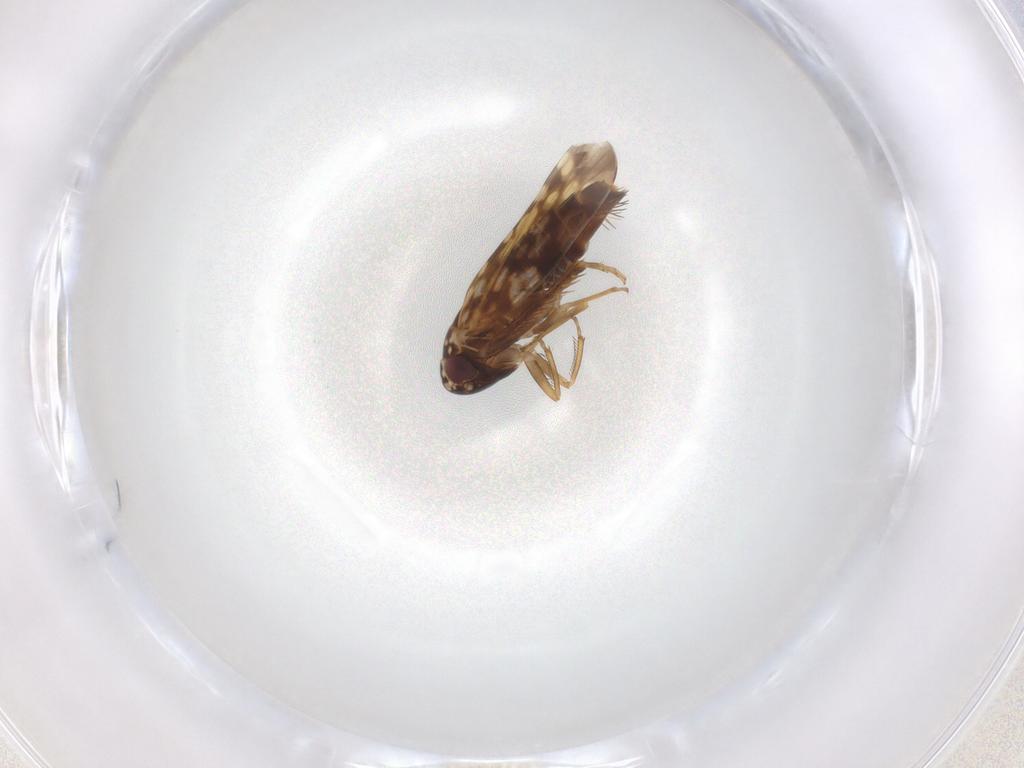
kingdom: Animalia
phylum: Arthropoda
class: Insecta
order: Hemiptera
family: Cicadellidae
